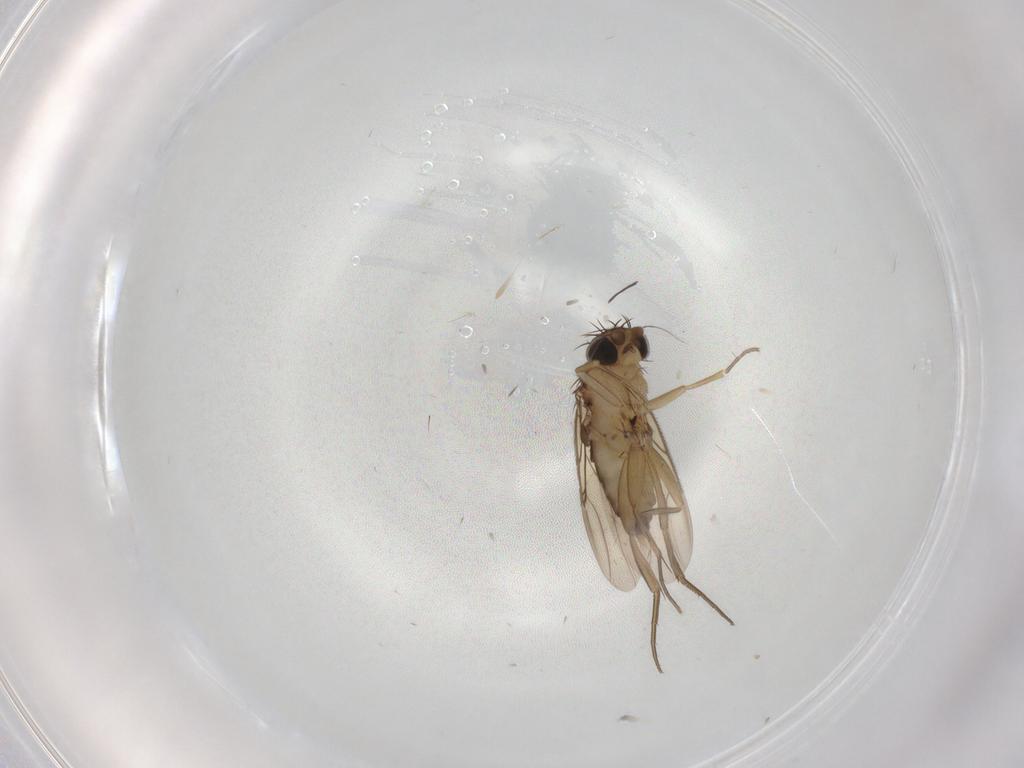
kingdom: Animalia
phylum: Arthropoda
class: Insecta
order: Diptera
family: Phoridae
